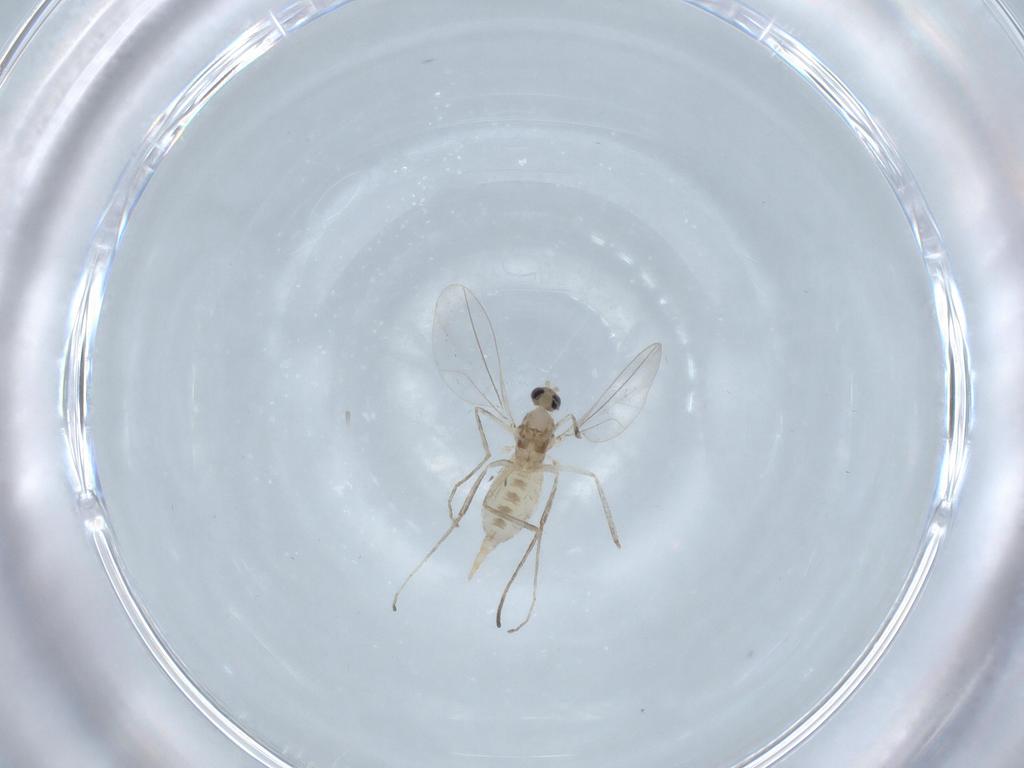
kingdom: Animalia
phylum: Arthropoda
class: Insecta
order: Diptera
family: Cecidomyiidae
